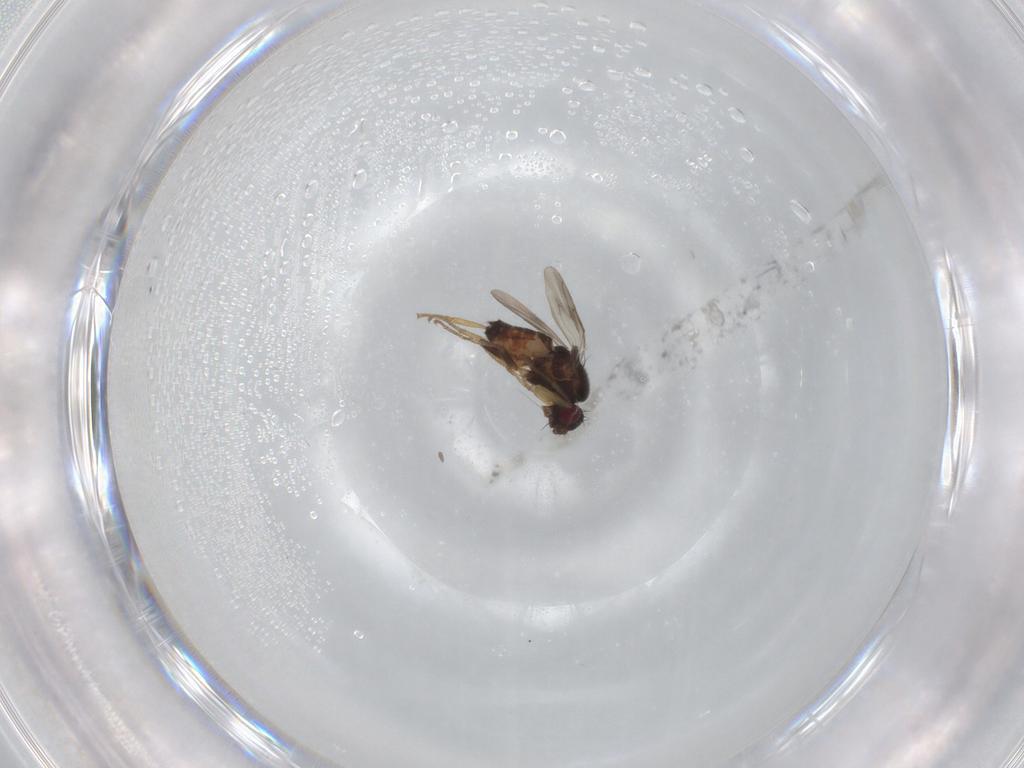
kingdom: Animalia
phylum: Arthropoda
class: Insecta
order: Diptera
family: Sphaeroceridae
